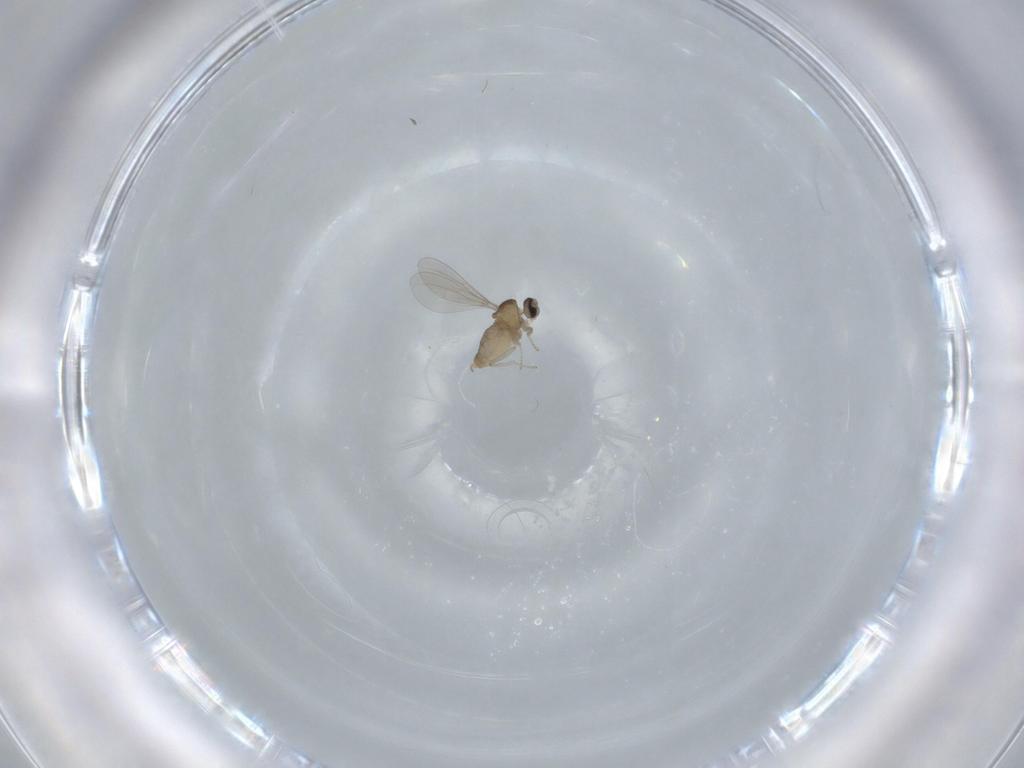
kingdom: Animalia
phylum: Arthropoda
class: Insecta
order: Diptera
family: Cecidomyiidae
